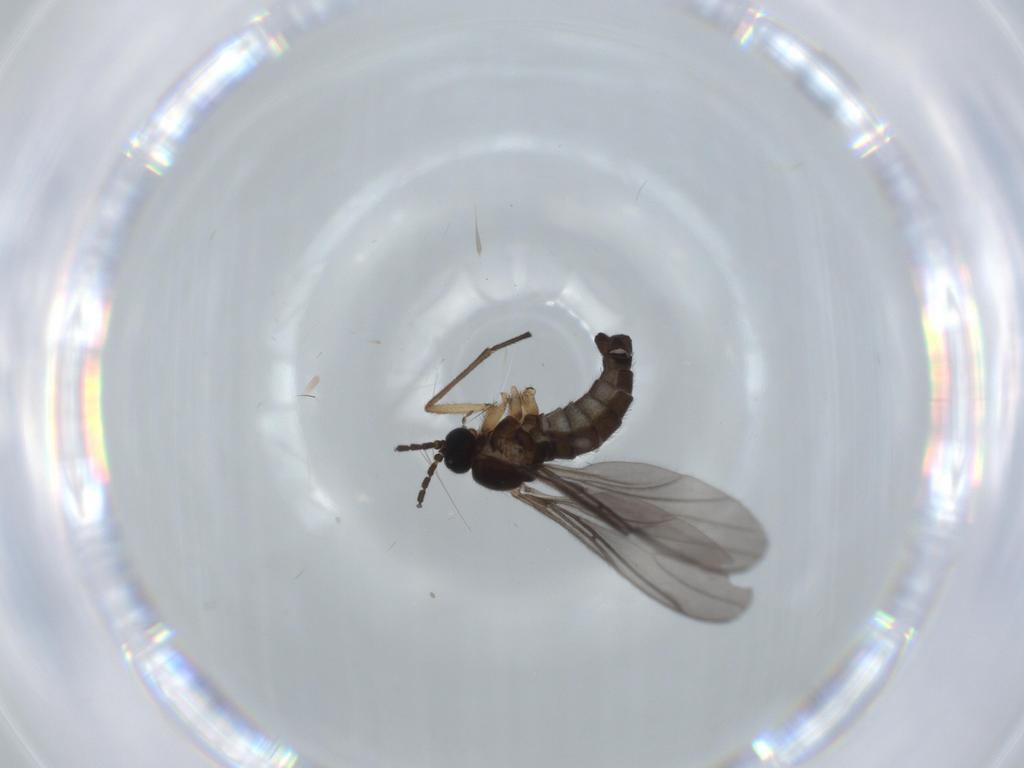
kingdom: Animalia
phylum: Arthropoda
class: Insecta
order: Diptera
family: Sciaridae
